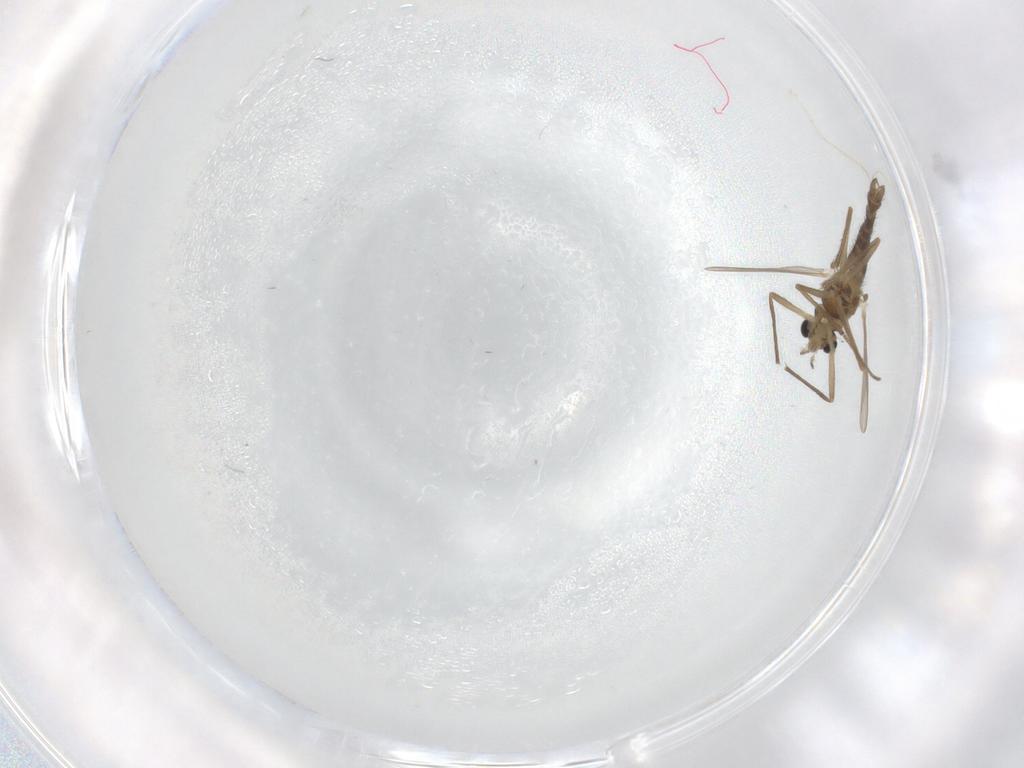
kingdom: Animalia
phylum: Arthropoda
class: Insecta
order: Diptera
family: Chironomidae
